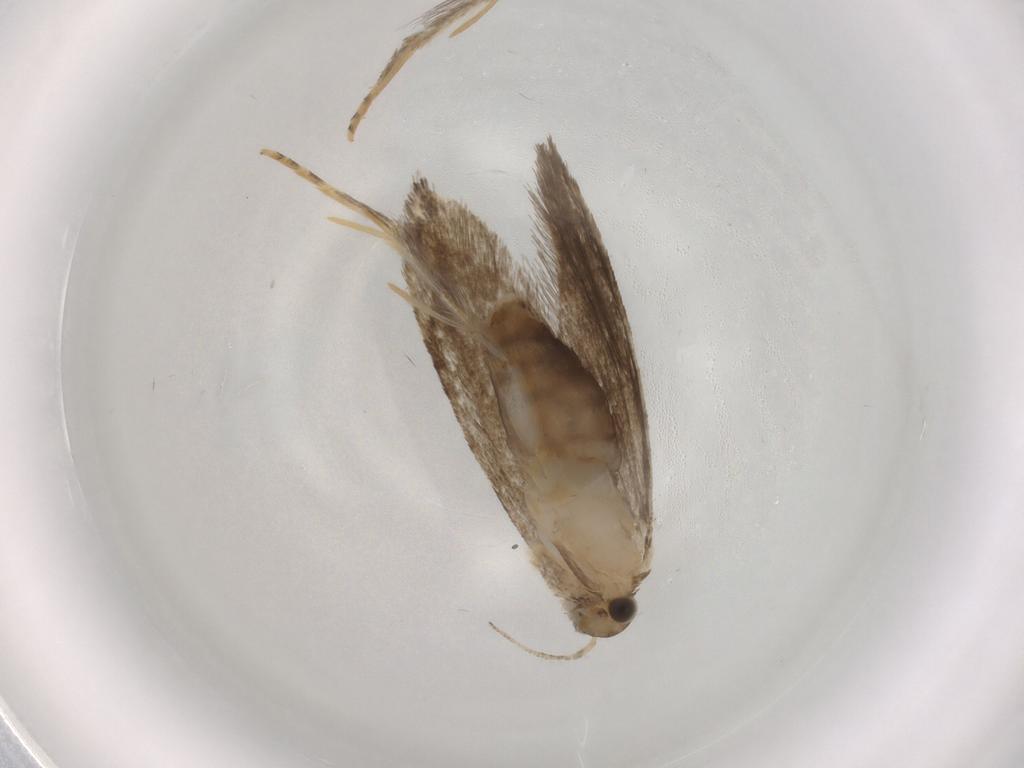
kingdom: Animalia
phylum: Arthropoda
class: Insecta
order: Lepidoptera
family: Tineidae
